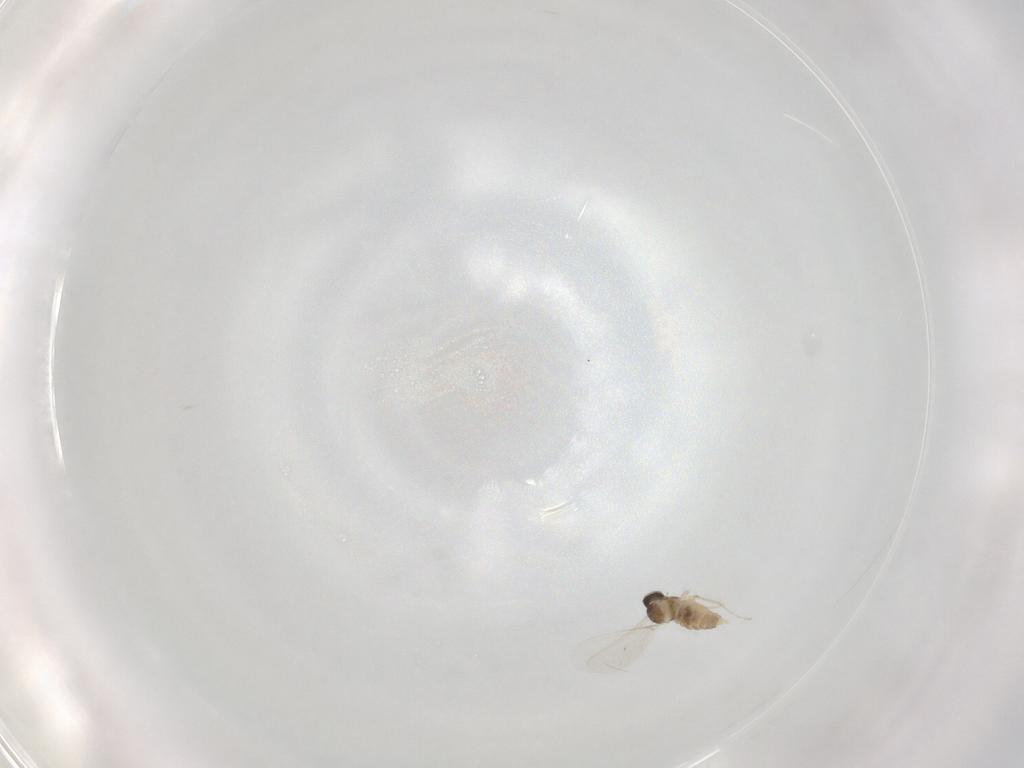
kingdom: Animalia
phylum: Arthropoda
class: Insecta
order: Diptera
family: Cecidomyiidae
